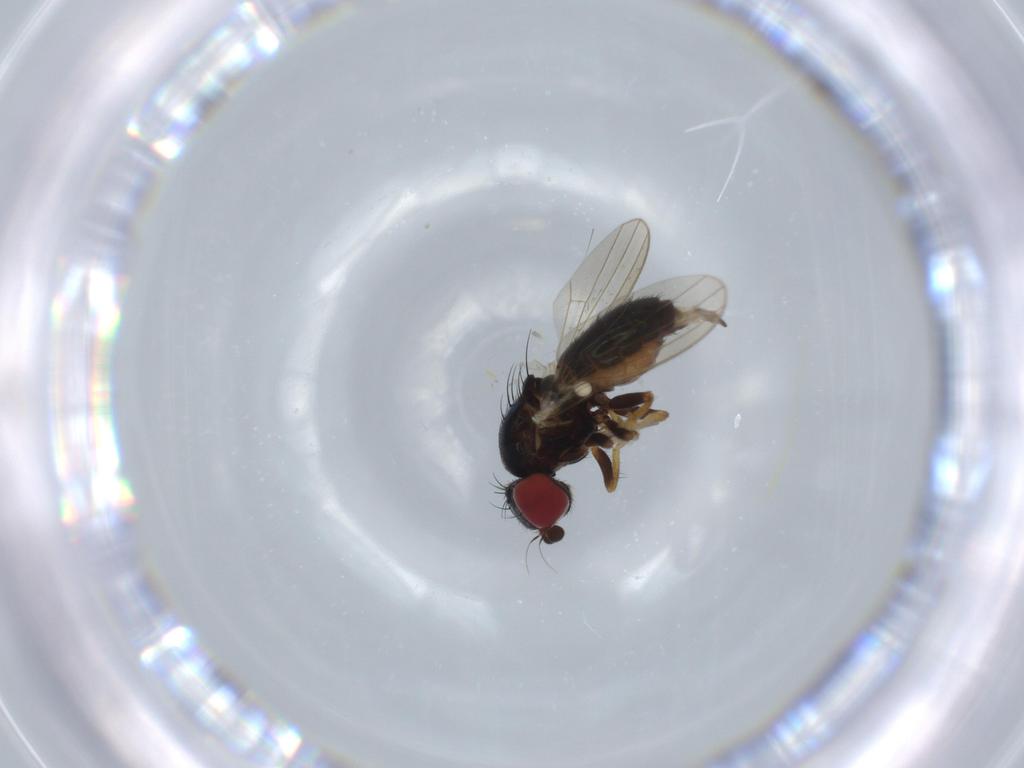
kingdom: Animalia
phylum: Arthropoda
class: Insecta
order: Diptera
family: Chamaemyiidae
